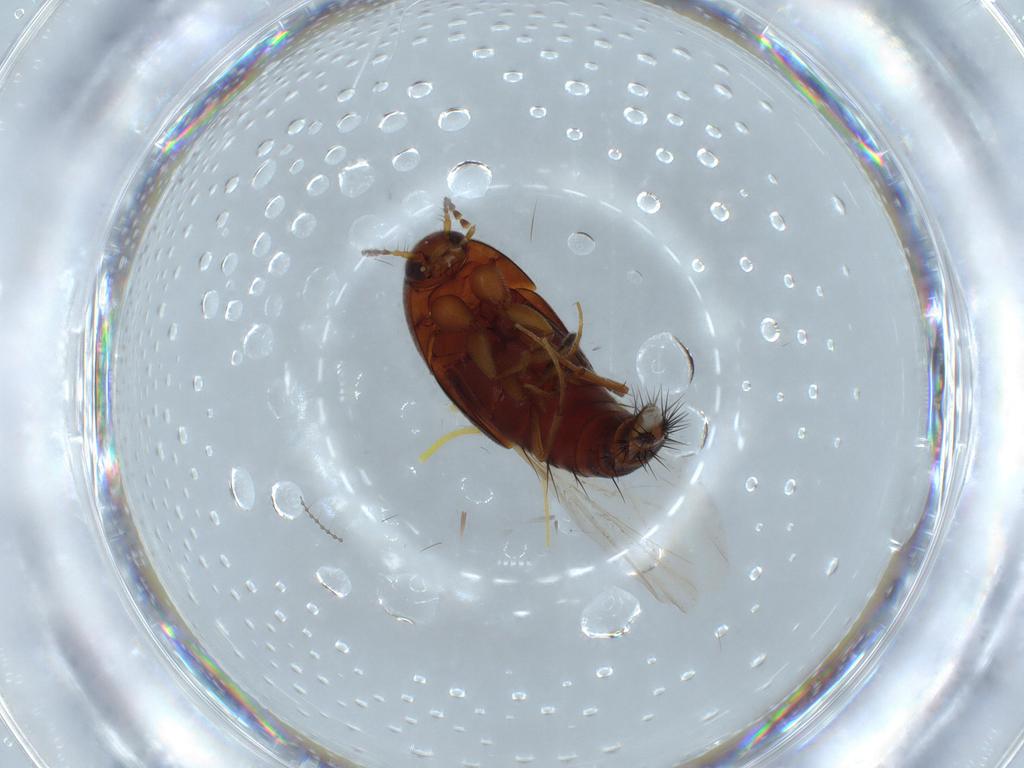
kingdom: Animalia
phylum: Arthropoda
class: Insecta
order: Coleoptera
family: Staphylinidae
